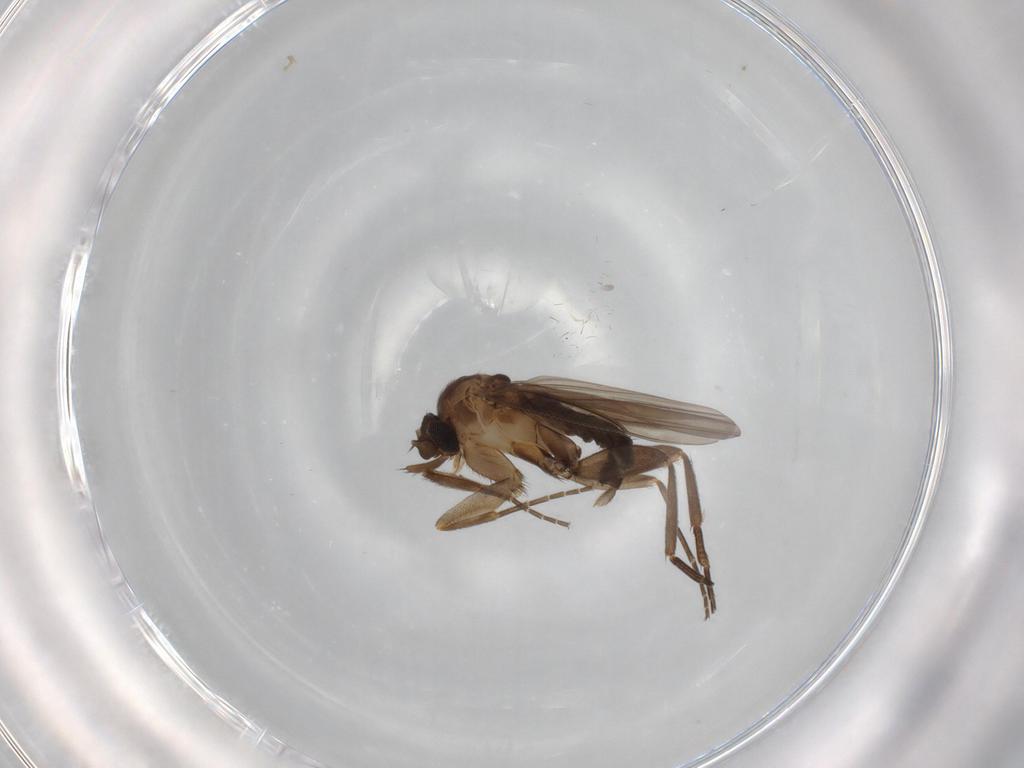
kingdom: Animalia
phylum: Arthropoda
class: Insecta
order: Diptera
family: Phoridae
